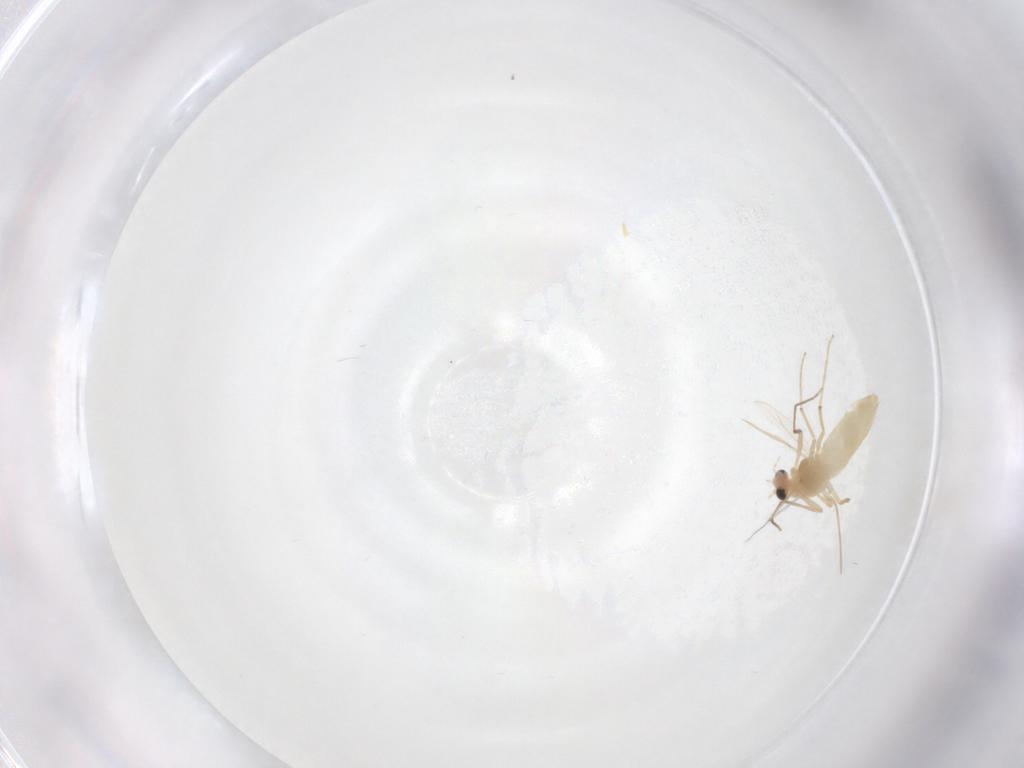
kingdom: Animalia
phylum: Arthropoda
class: Insecta
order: Diptera
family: Chironomidae
